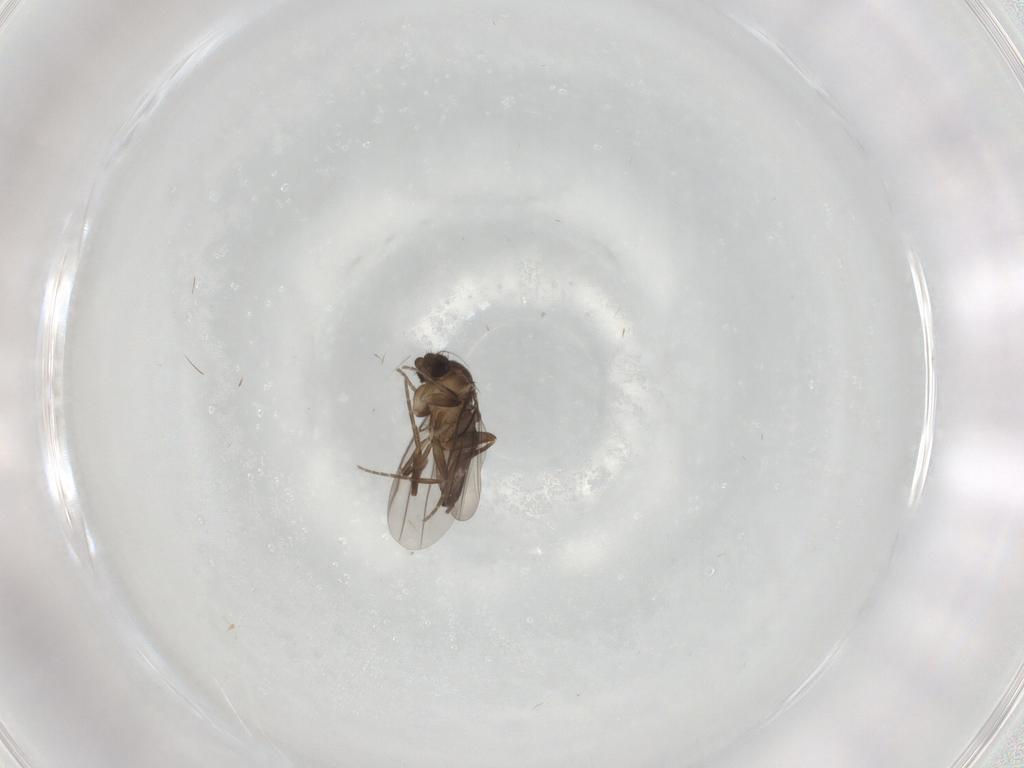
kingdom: Animalia
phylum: Arthropoda
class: Insecta
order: Diptera
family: Phoridae
